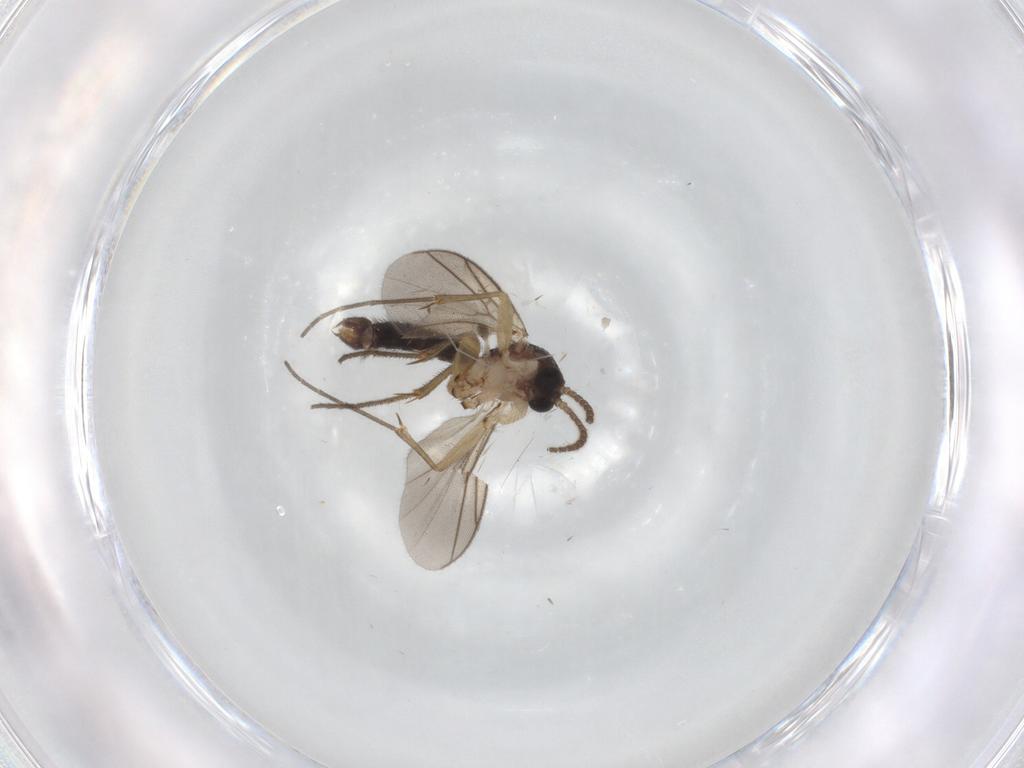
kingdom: Animalia
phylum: Arthropoda
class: Insecta
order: Diptera
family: Mycetophilidae
